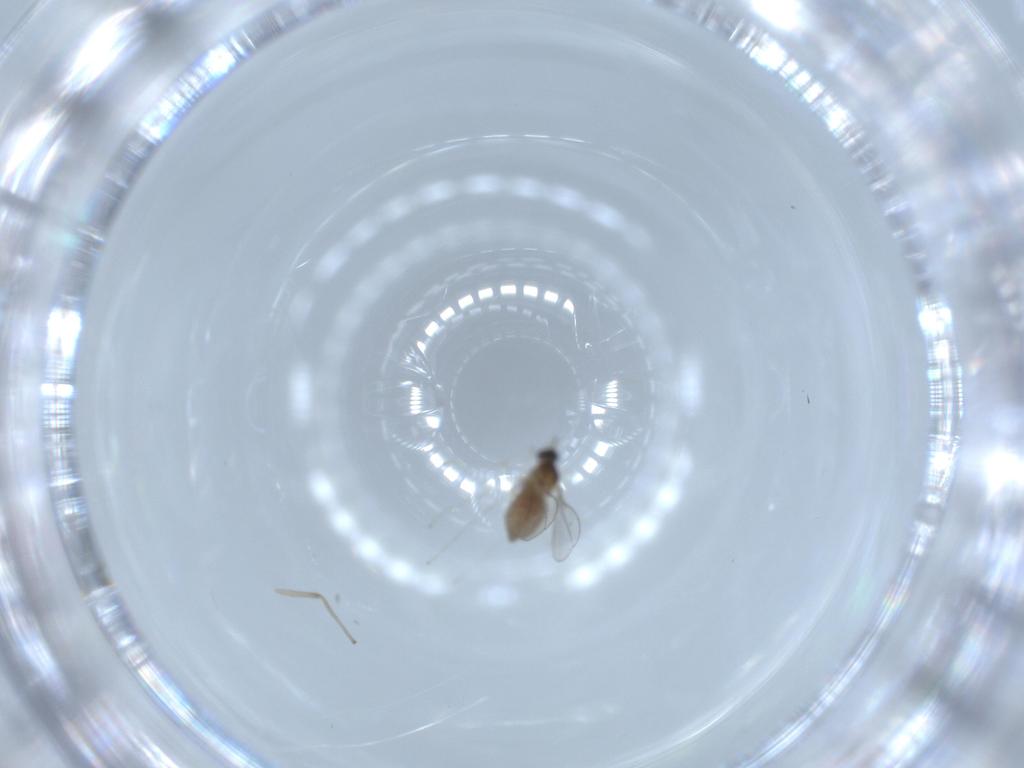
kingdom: Animalia
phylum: Arthropoda
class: Insecta
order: Diptera
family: Cecidomyiidae
